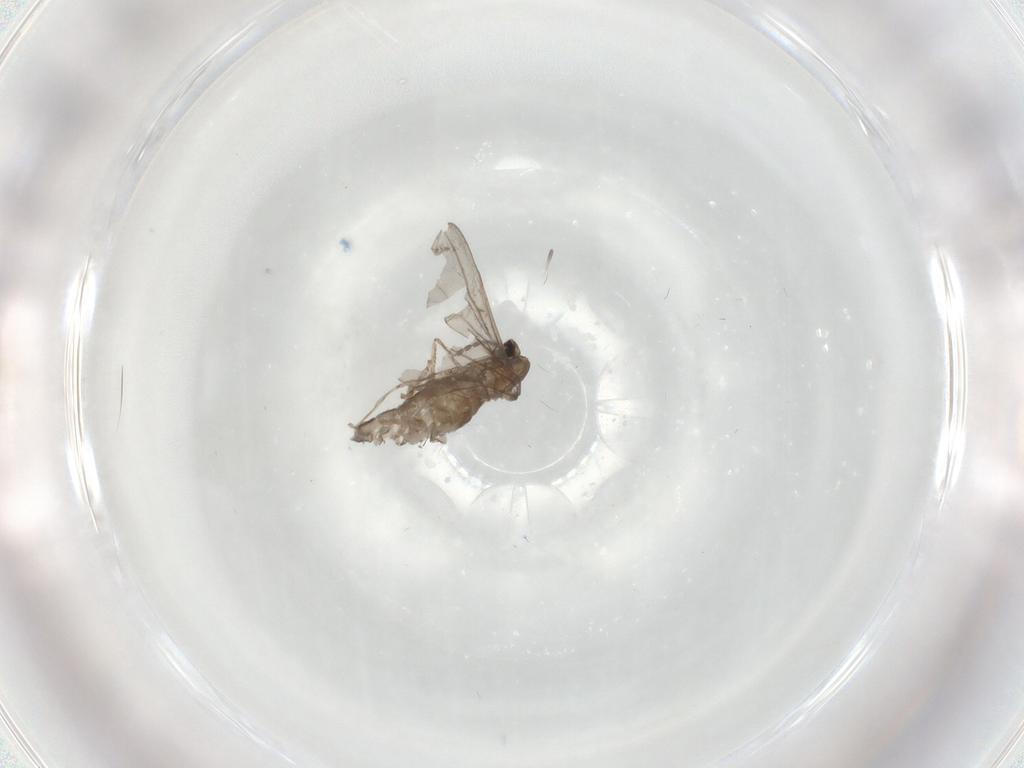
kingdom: Animalia
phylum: Arthropoda
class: Insecta
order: Diptera
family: Cecidomyiidae
